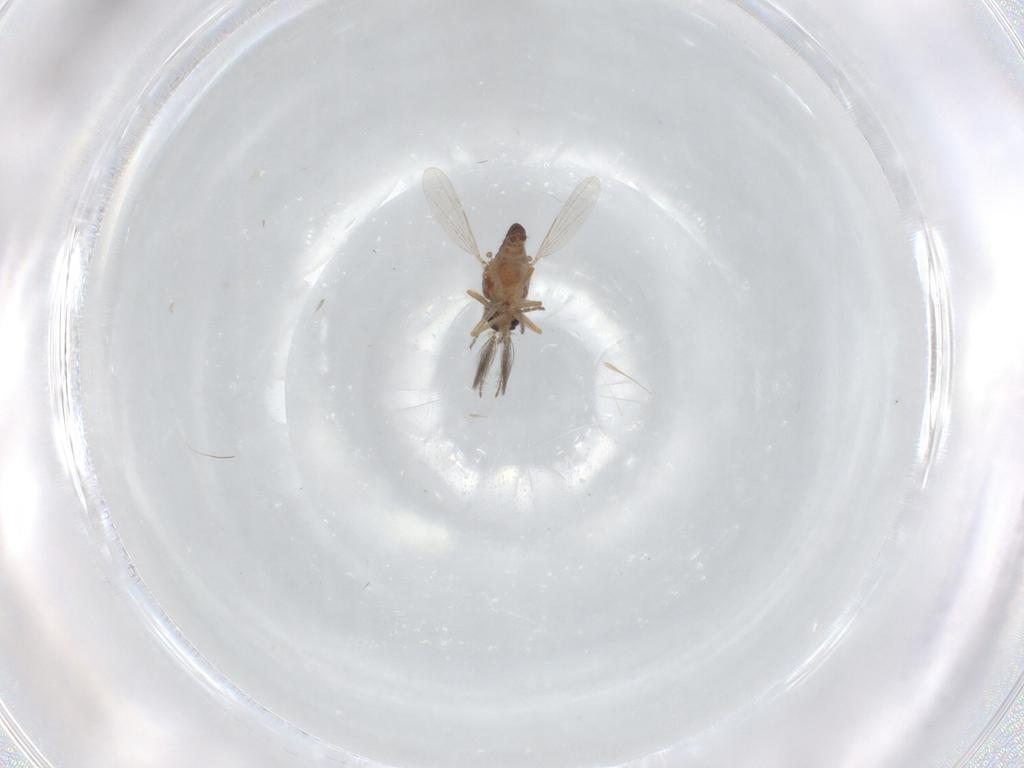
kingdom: Animalia
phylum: Arthropoda
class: Insecta
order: Diptera
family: Ceratopogonidae
